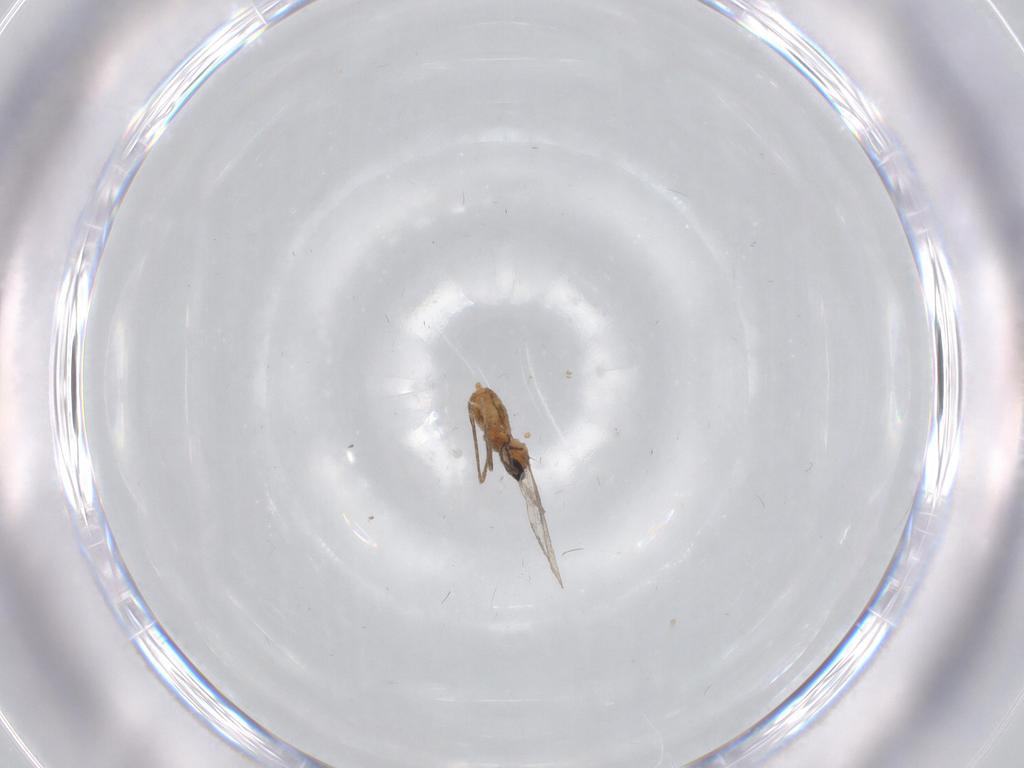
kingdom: Animalia
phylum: Arthropoda
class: Insecta
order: Diptera
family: Cecidomyiidae
